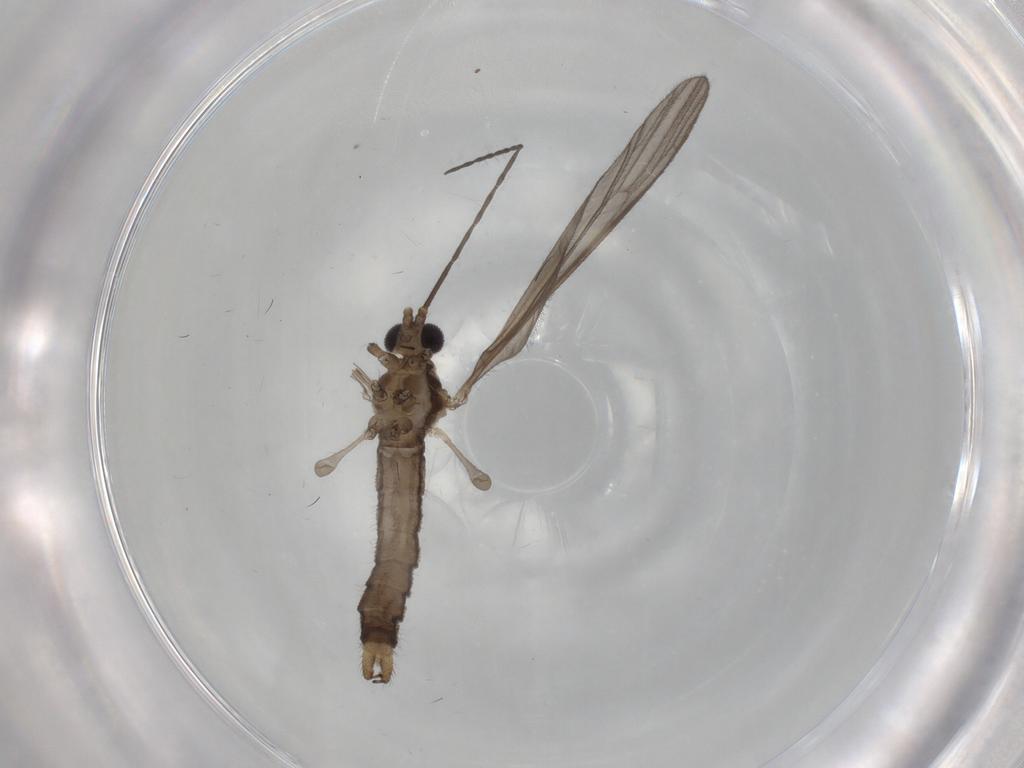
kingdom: Animalia
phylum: Arthropoda
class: Insecta
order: Diptera
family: Limoniidae
